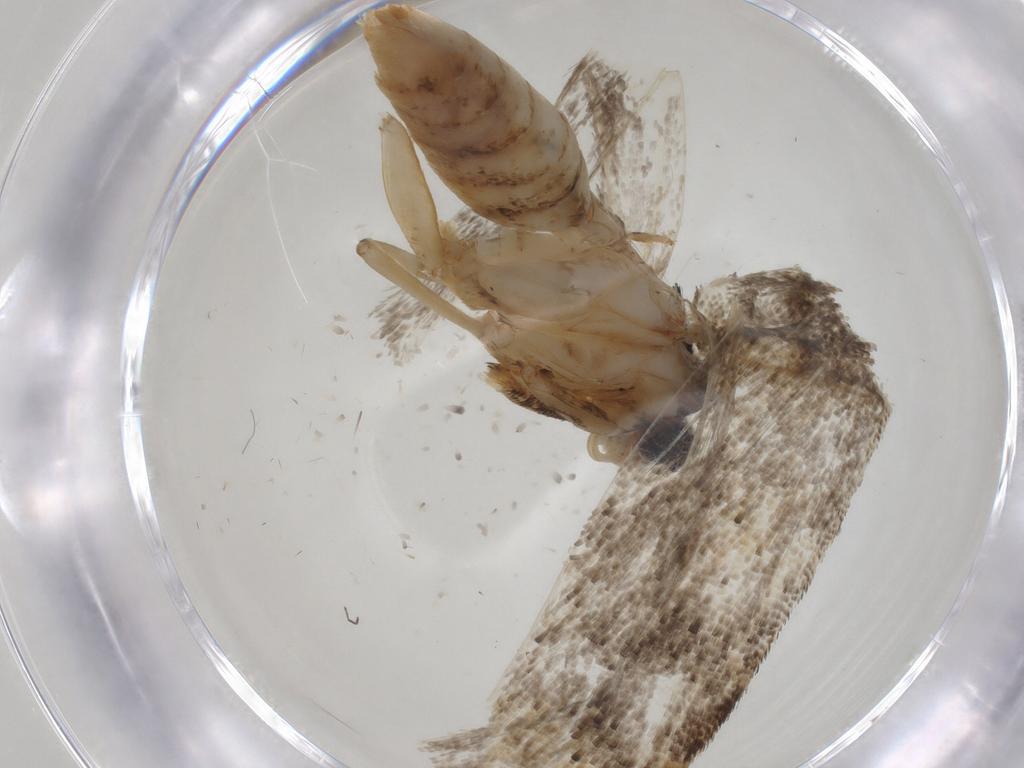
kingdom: Animalia
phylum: Arthropoda
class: Insecta
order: Lepidoptera
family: Tineidae
